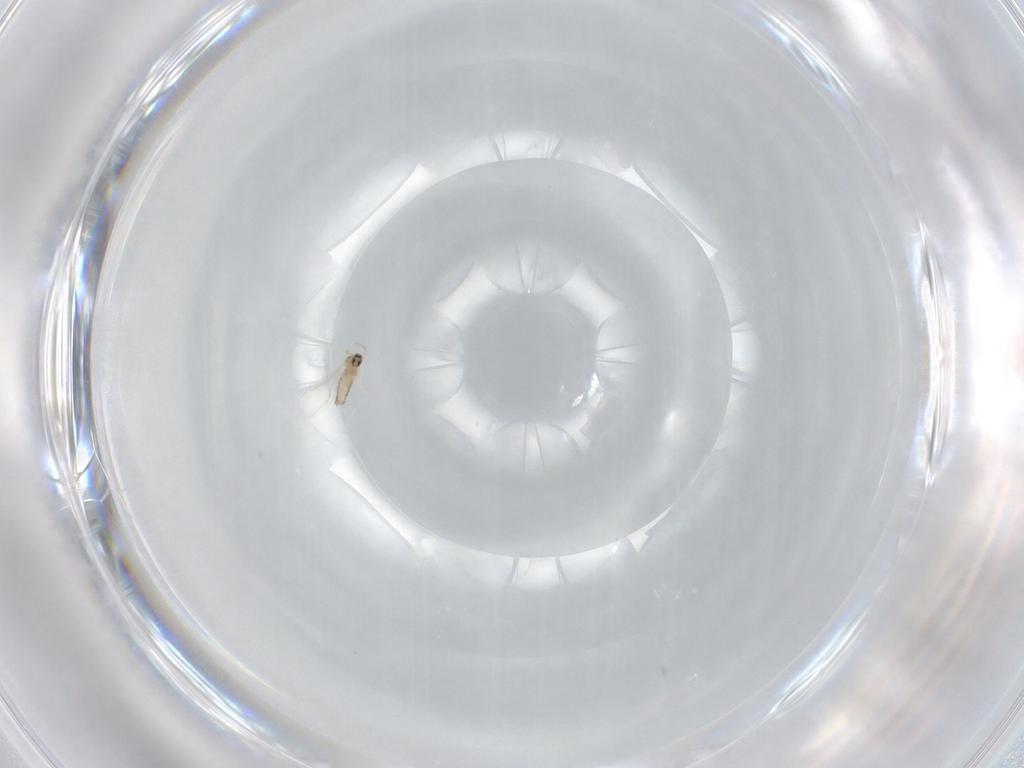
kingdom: Animalia
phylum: Arthropoda
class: Insecta
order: Diptera
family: Cecidomyiidae
